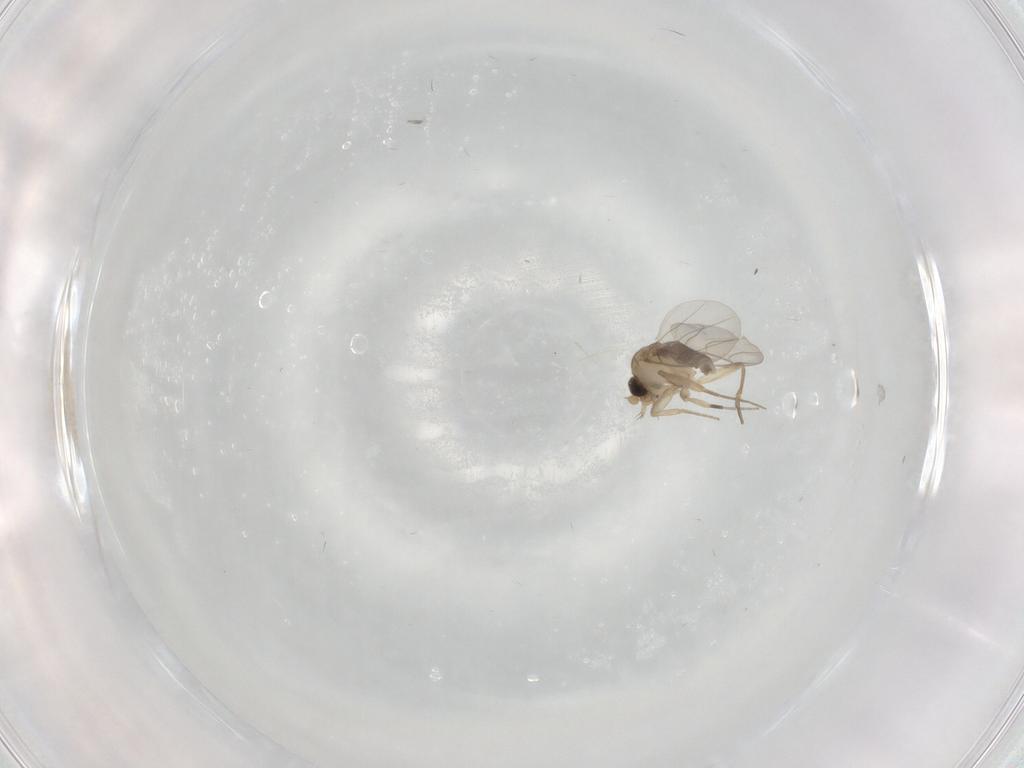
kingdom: Animalia
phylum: Arthropoda
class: Insecta
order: Diptera
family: Phoridae
